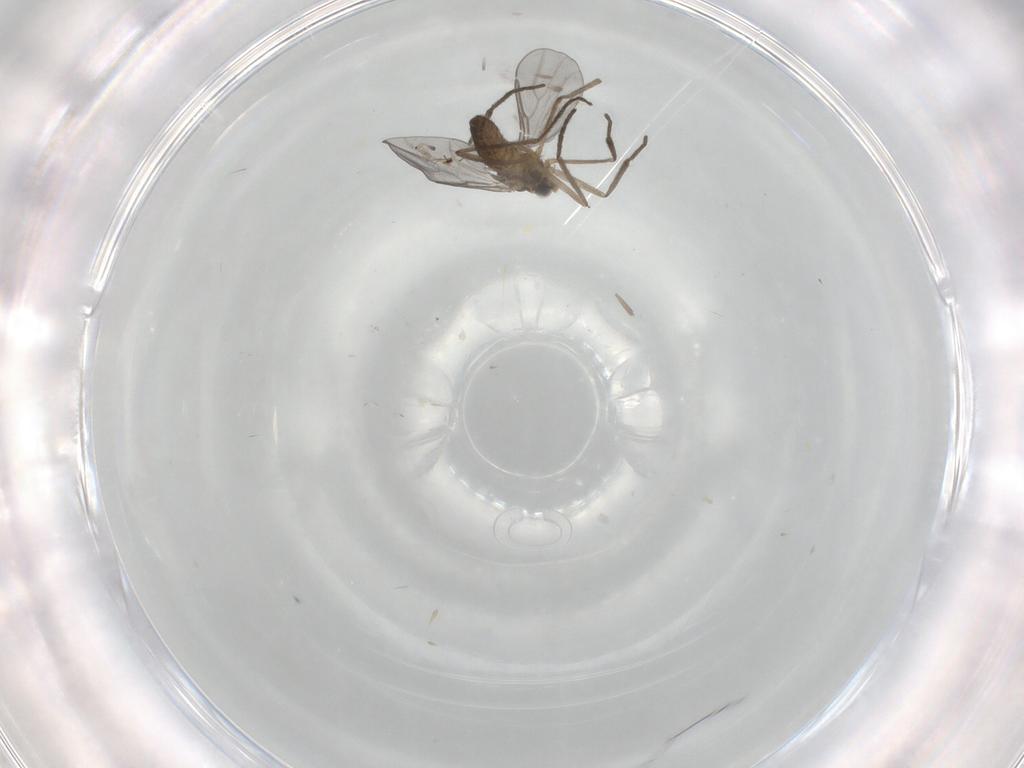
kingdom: Animalia
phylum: Arthropoda
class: Insecta
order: Diptera
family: Cecidomyiidae
